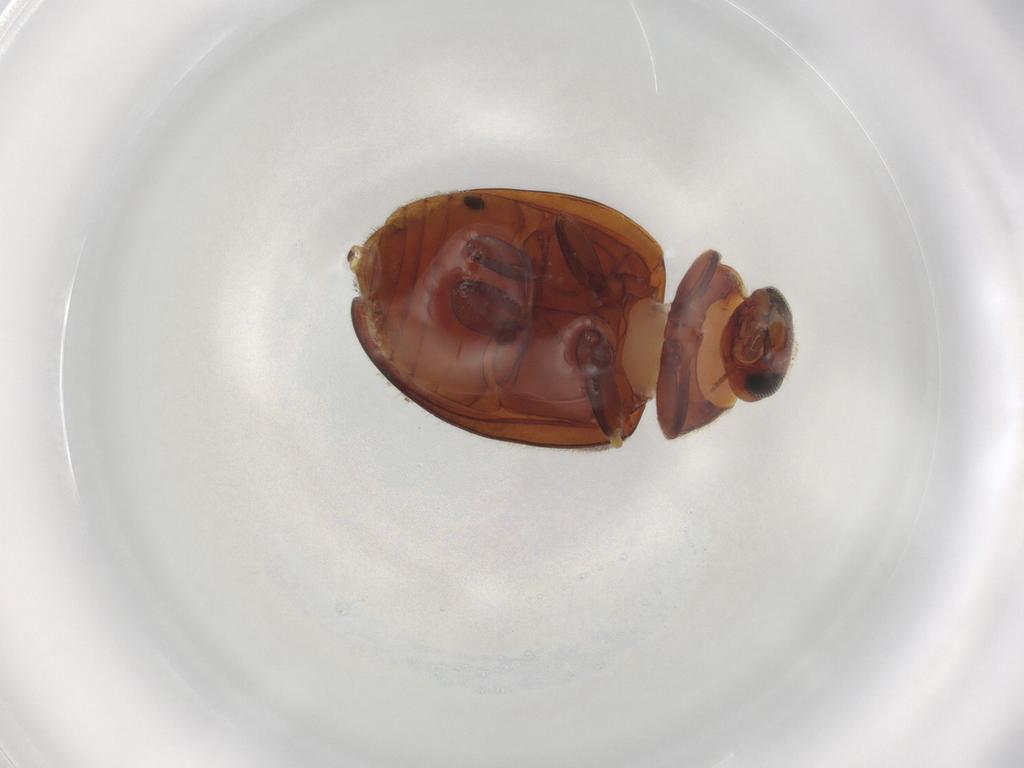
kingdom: Animalia
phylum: Arthropoda
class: Insecta
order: Coleoptera
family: Coccinellidae
